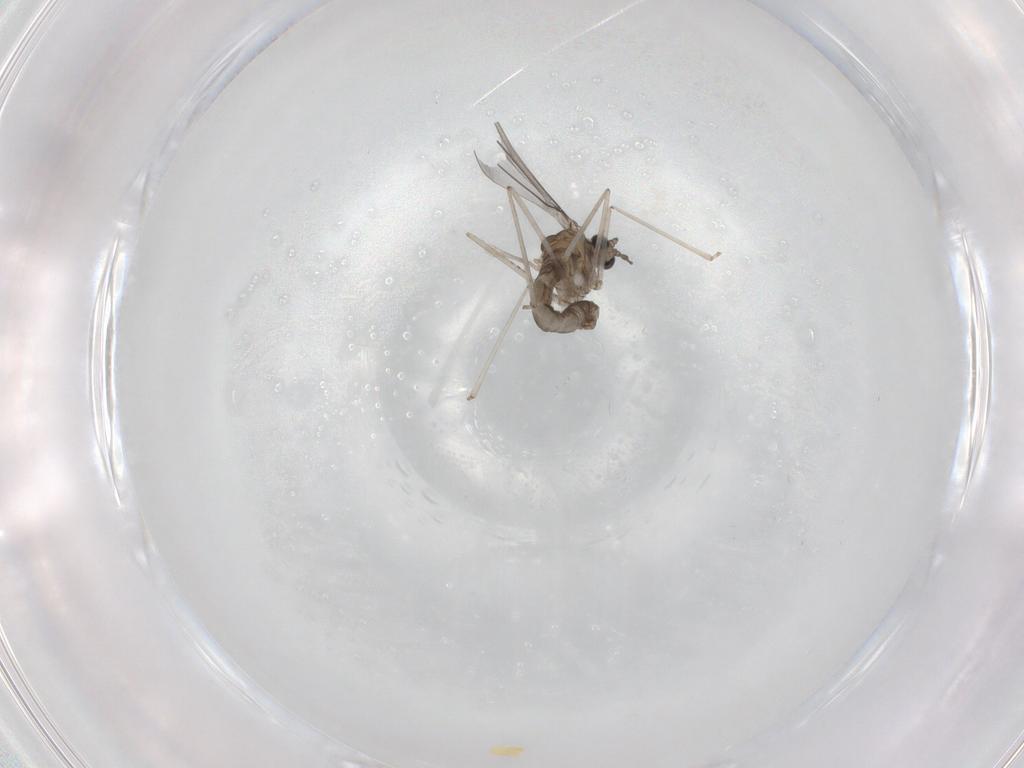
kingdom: Animalia
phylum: Arthropoda
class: Insecta
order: Diptera
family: Cecidomyiidae
